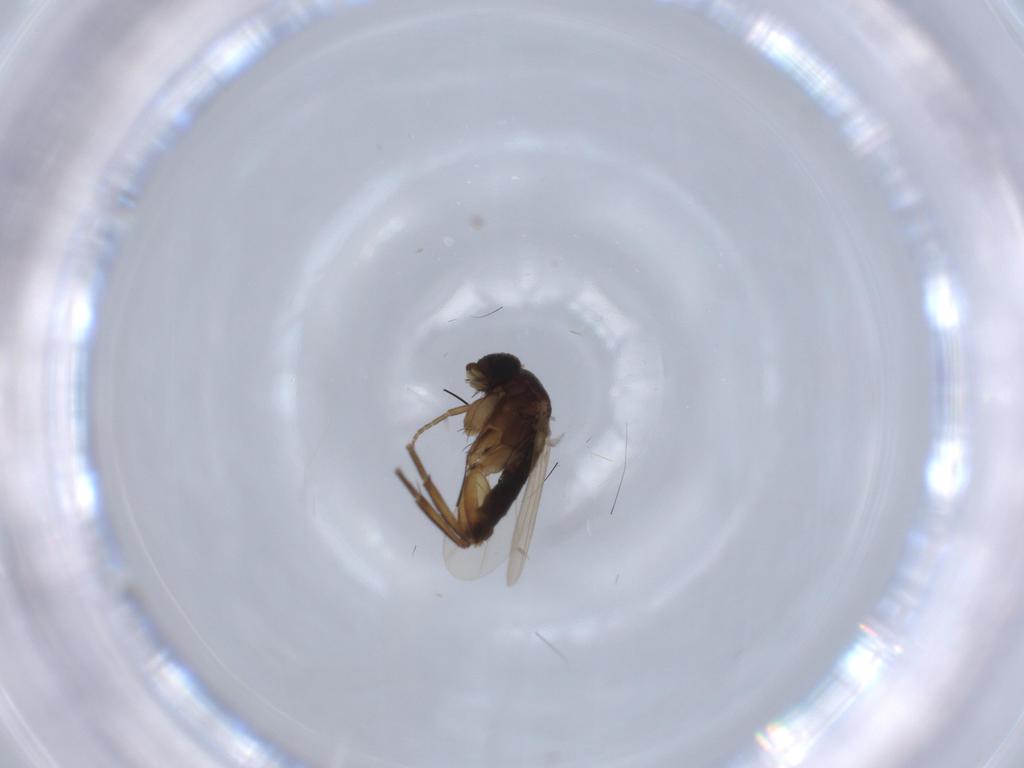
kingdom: Animalia
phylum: Arthropoda
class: Insecta
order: Diptera
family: Phoridae
